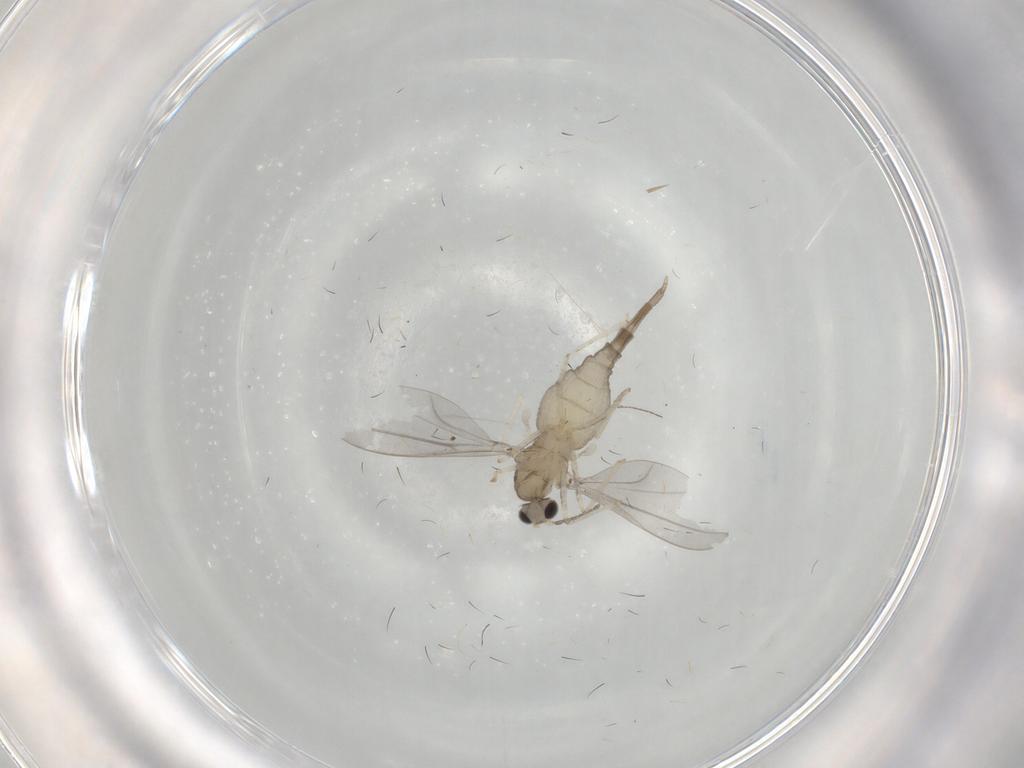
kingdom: Animalia
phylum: Arthropoda
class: Insecta
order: Diptera
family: Cecidomyiidae
